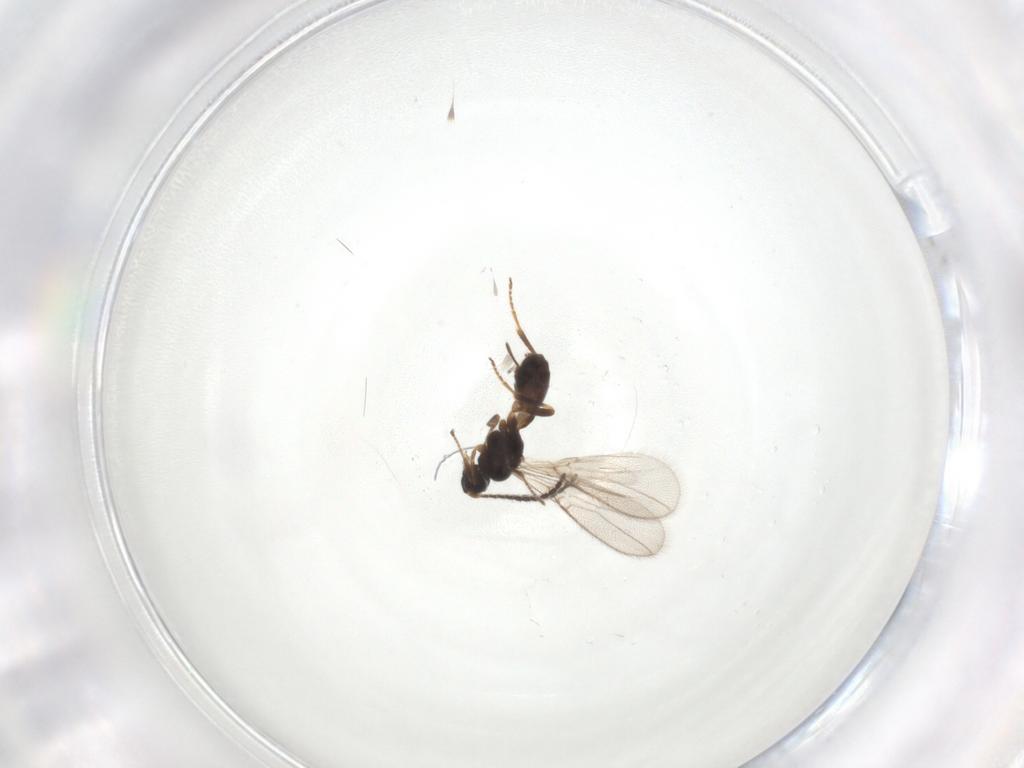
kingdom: Animalia
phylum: Arthropoda
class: Insecta
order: Hymenoptera
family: Braconidae
